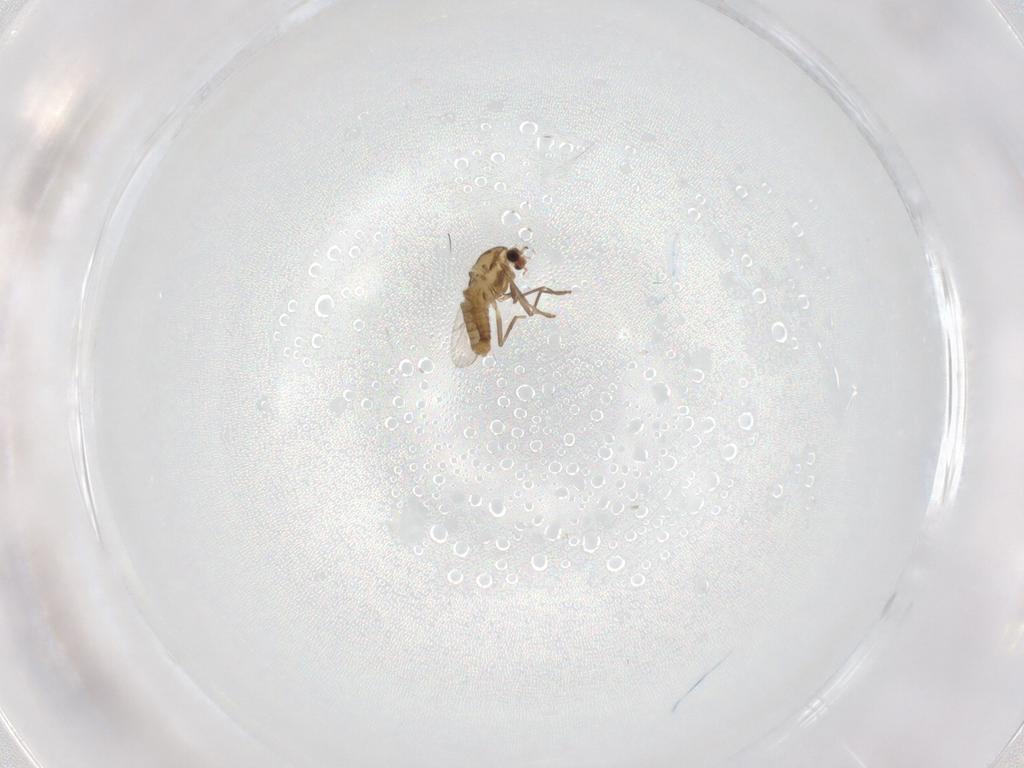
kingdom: Animalia
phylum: Arthropoda
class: Insecta
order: Diptera
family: Chironomidae
